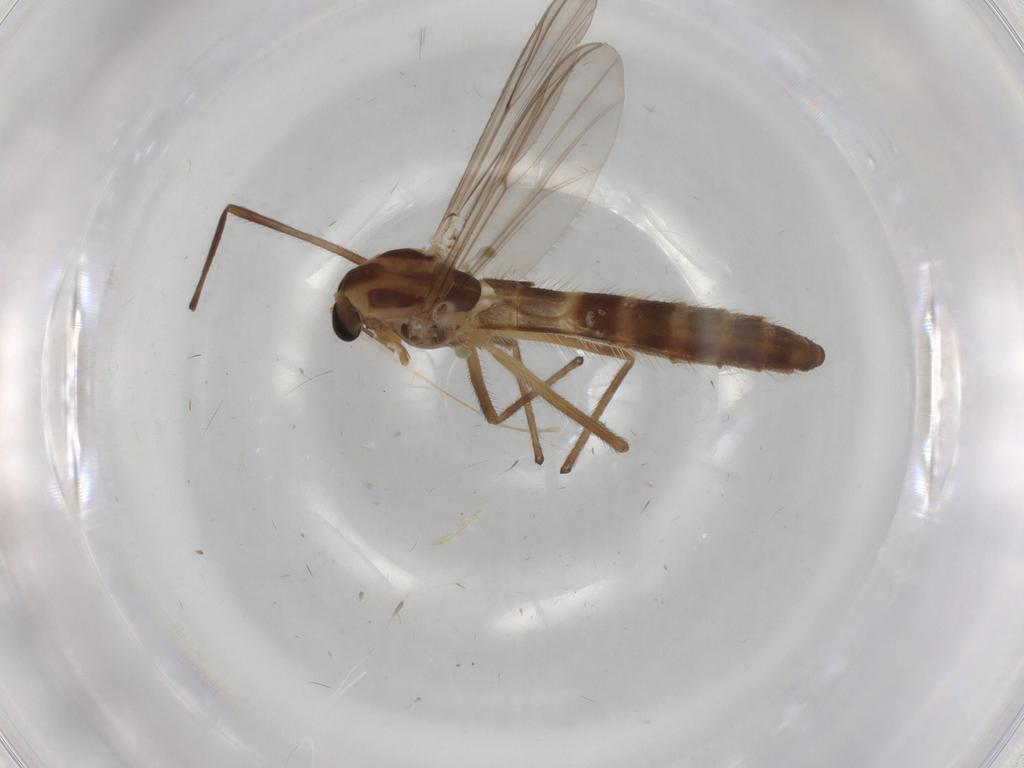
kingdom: Animalia
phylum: Arthropoda
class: Insecta
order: Diptera
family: Chironomidae
